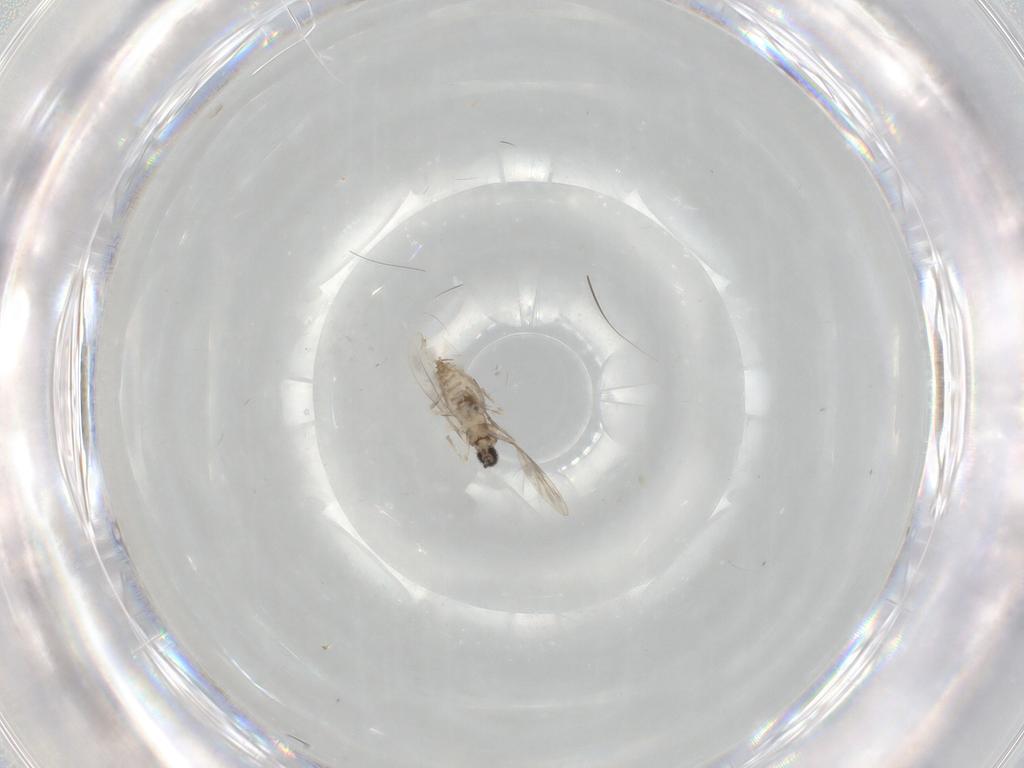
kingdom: Animalia
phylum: Arthropoda
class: Insecta
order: Diptera
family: Cecidomyiidae
